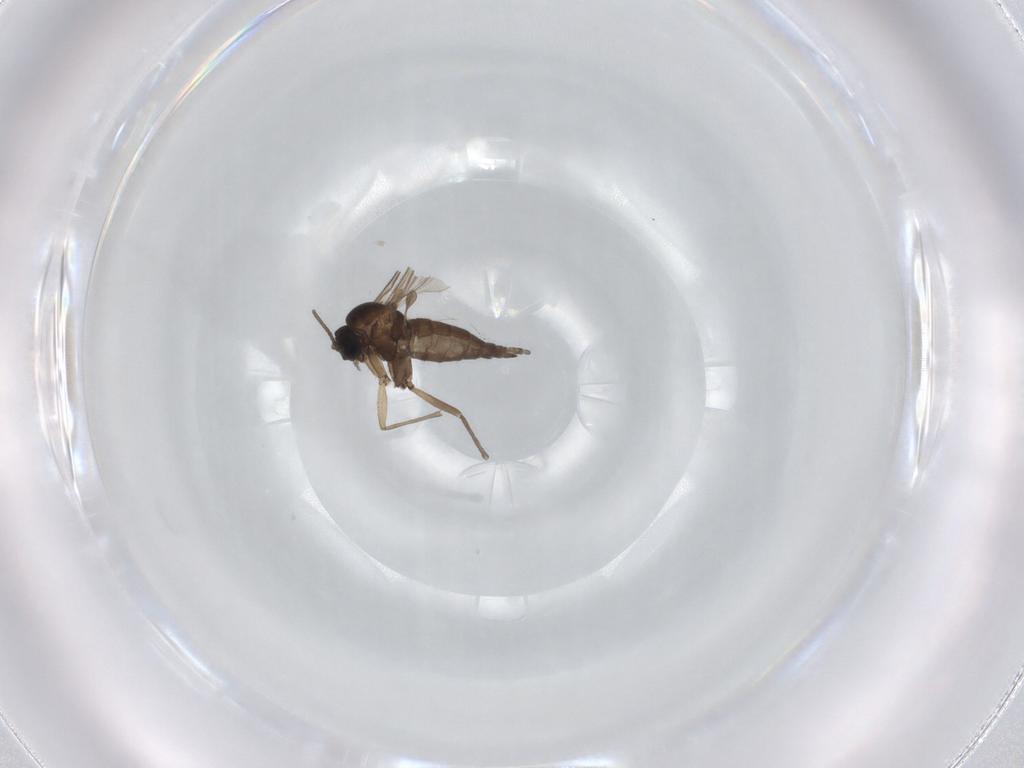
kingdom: Animalia
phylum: Arthropoda
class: Insecta
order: Diptera
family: Sciaridae
